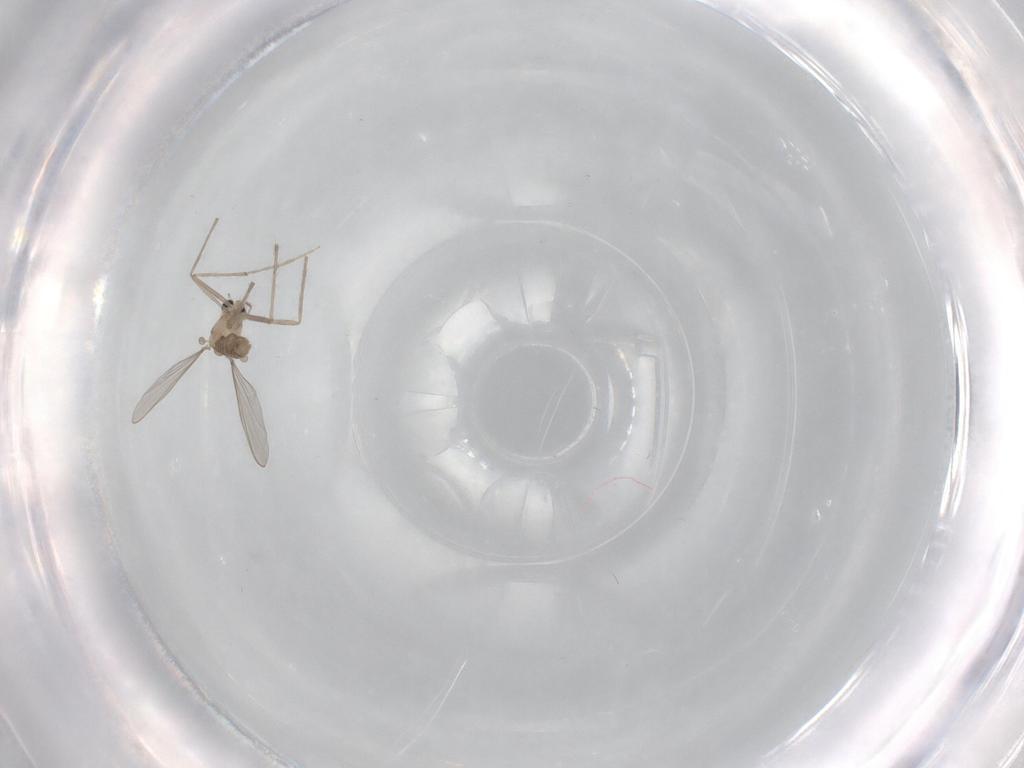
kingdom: Animalia
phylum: Arthropoda
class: Insecta
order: Diptera
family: Chironomidae
